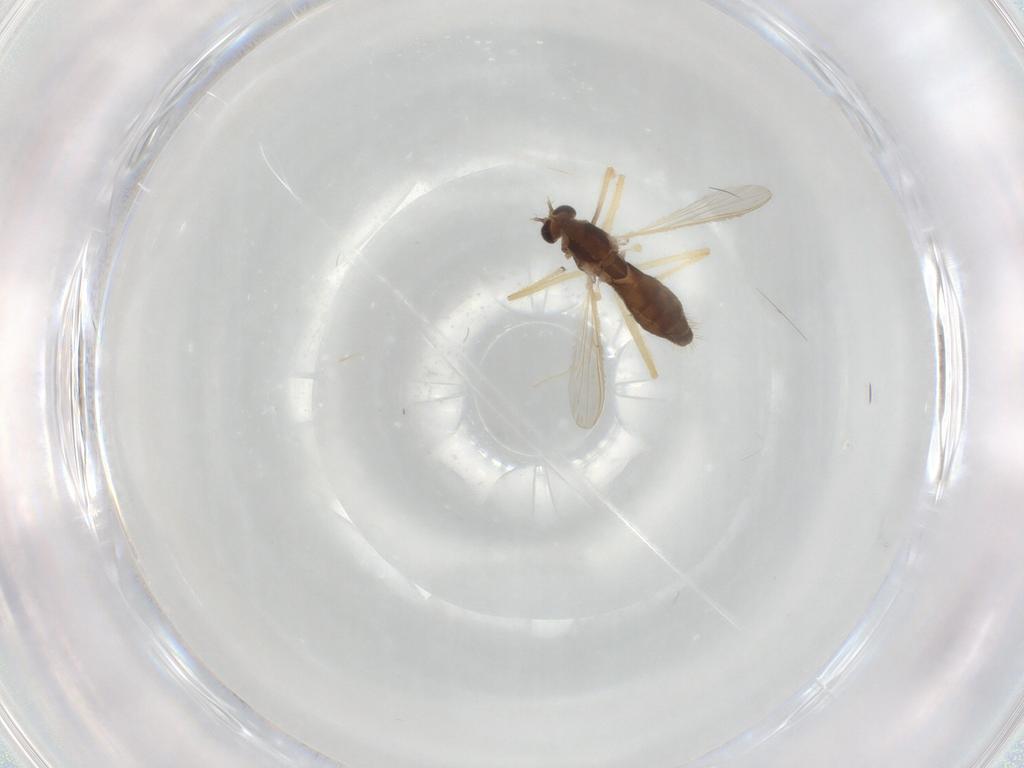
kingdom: Animalia
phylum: Arthropoda
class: Insecta
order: Diptera
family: Chironomidae
